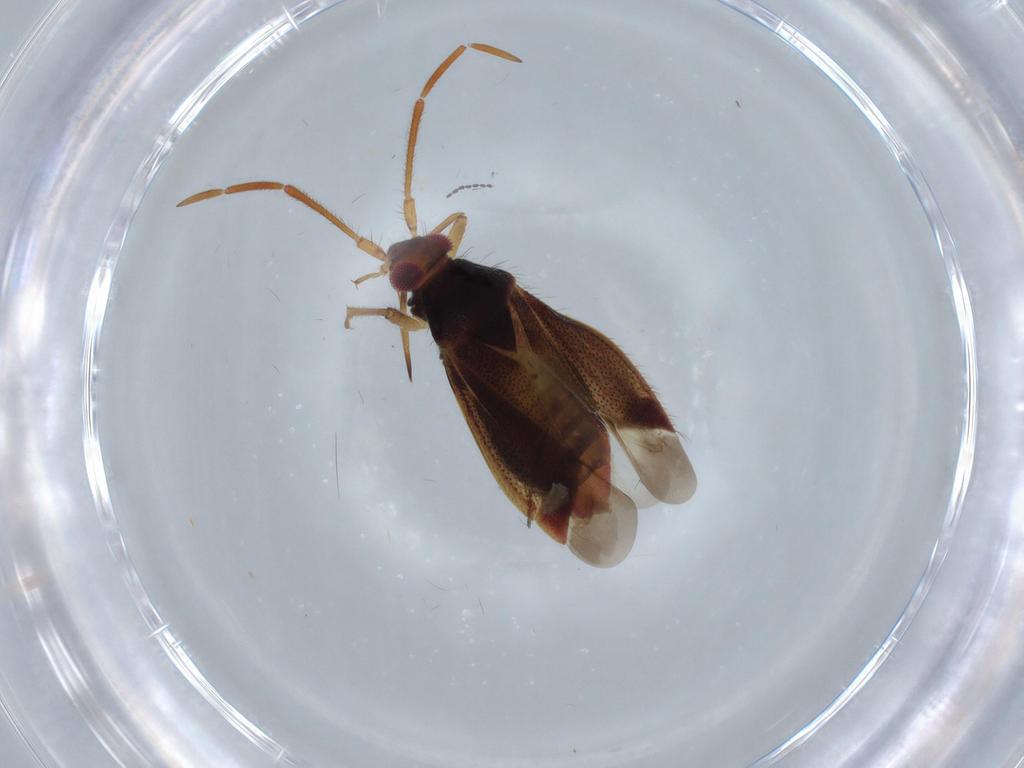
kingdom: Animalia
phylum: Arthropoda
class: Insecta
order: Hemiptera
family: Miridae
